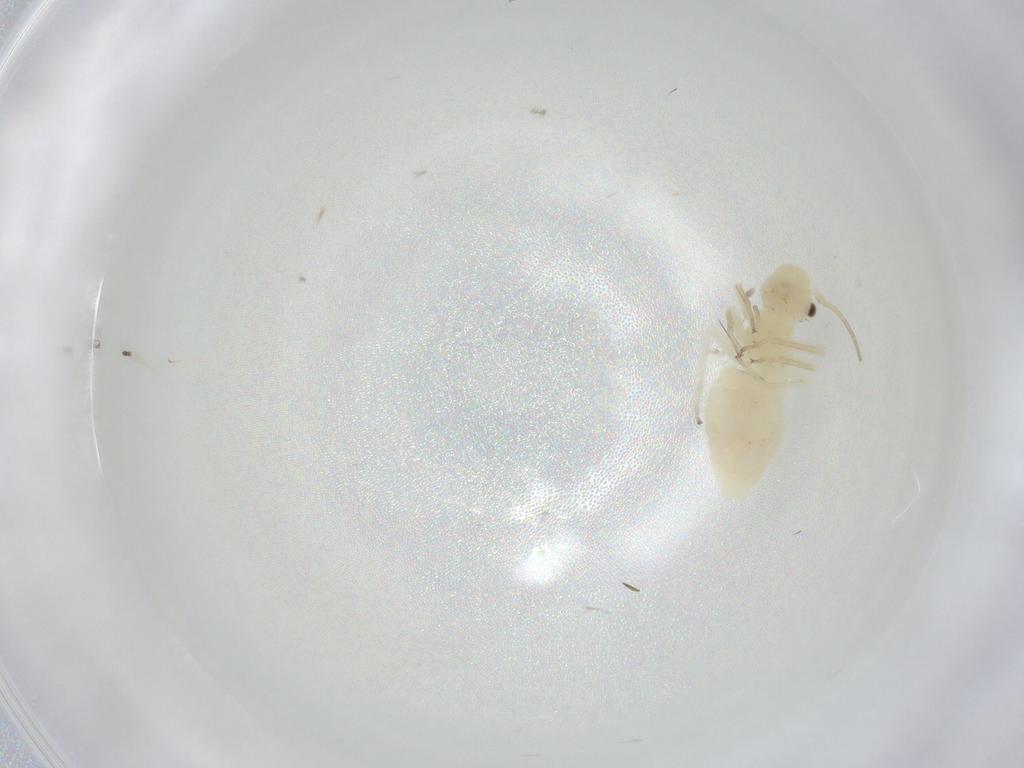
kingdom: Animalia
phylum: Arthropoda
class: Insecta
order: Psocodea
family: Caeciliusidae
